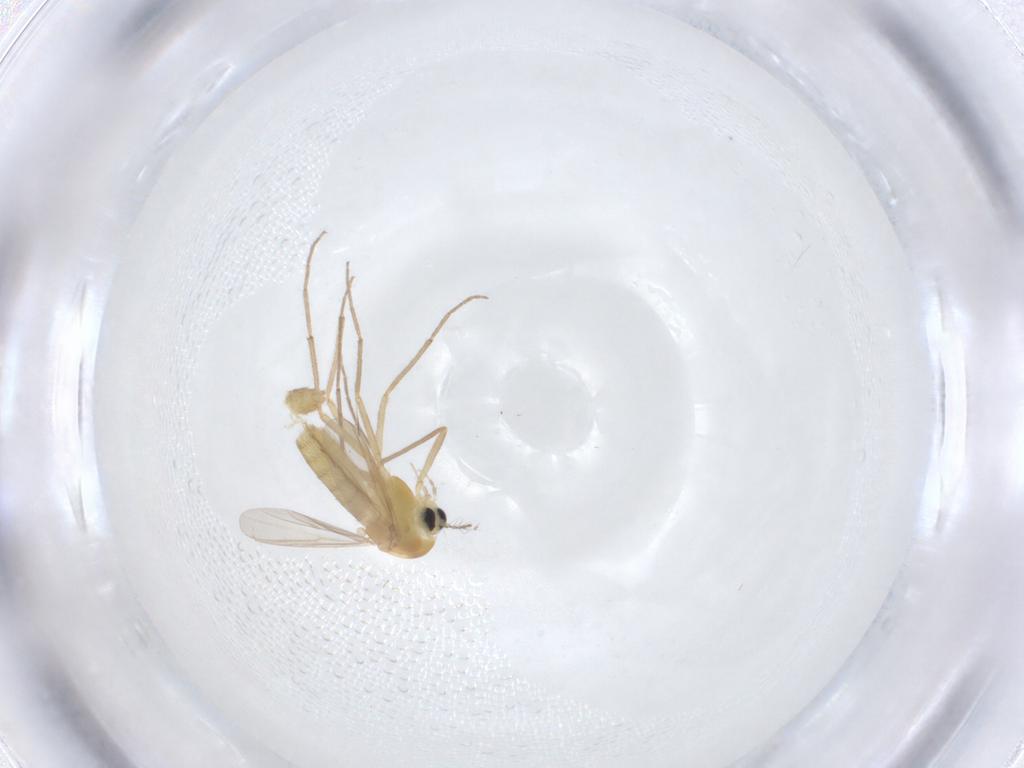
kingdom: Animalia
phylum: Arthropoda
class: Insecta
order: Diptera
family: Chironomidae
